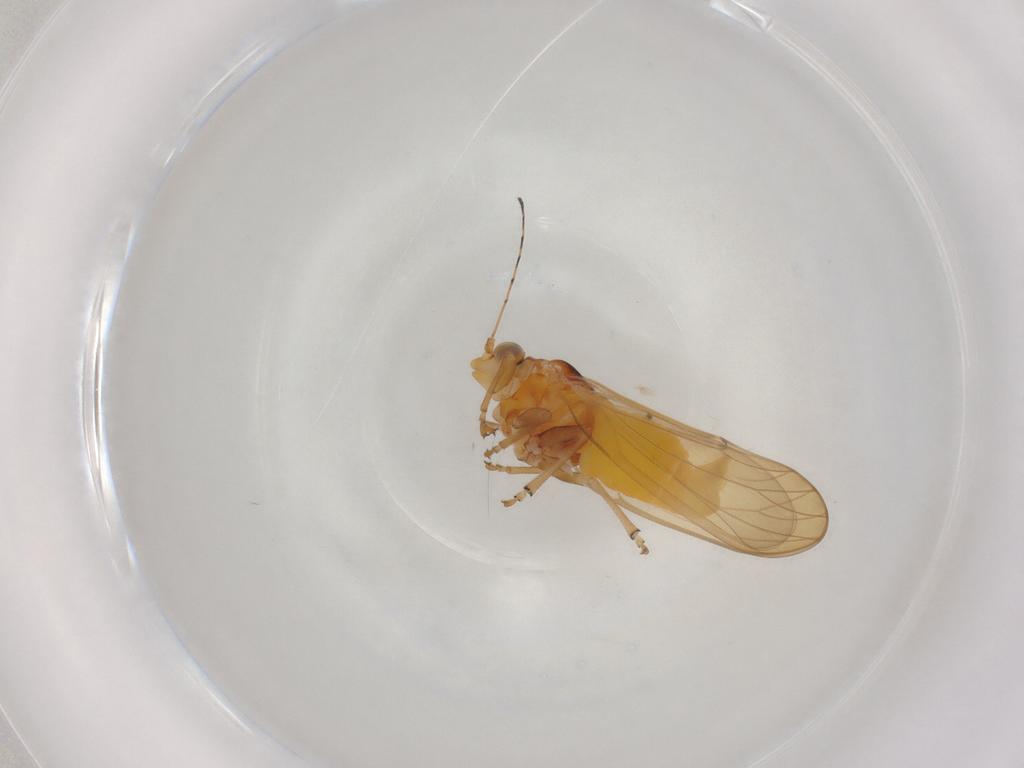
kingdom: Animalia
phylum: Arthropoda
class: Insecta
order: Hemiptera
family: Psylloidea_incertae_sedis
